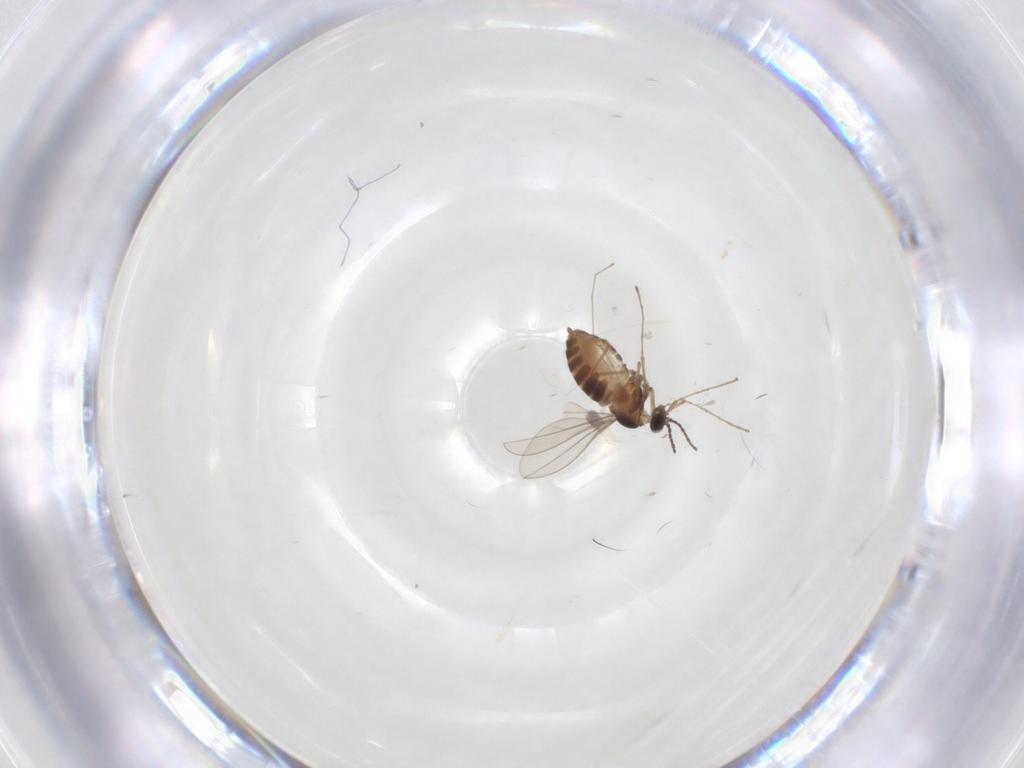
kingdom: Animalia
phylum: Arthropoda
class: Insecta
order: Diptera
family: Cecidomyiidae
